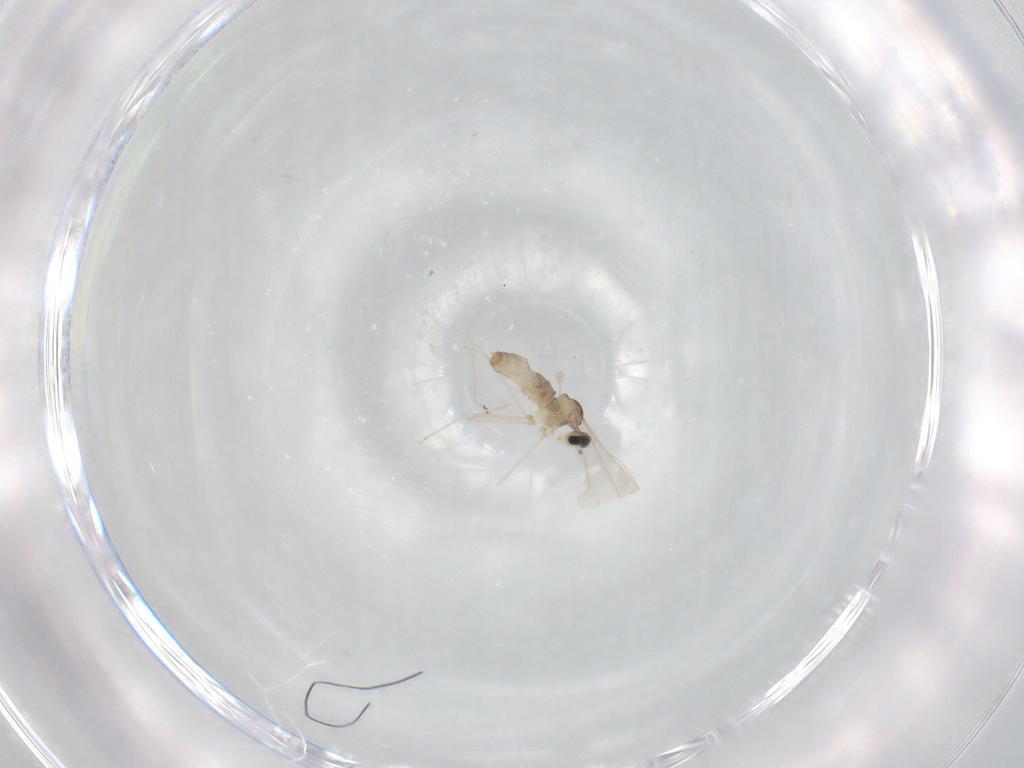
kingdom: Animalia
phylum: Arthropoda
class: Insecta
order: Diptera
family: Cecidomyiidae
